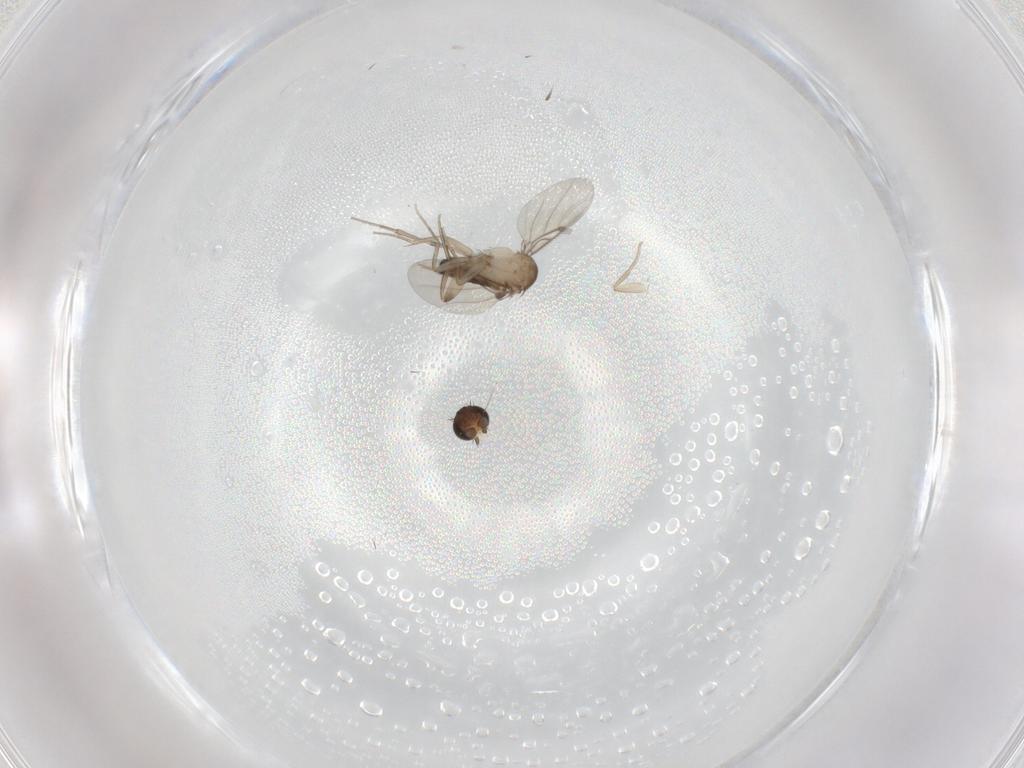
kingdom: Animalia
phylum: Arthropoda
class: Insecta
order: Diptera
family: Phoridae
